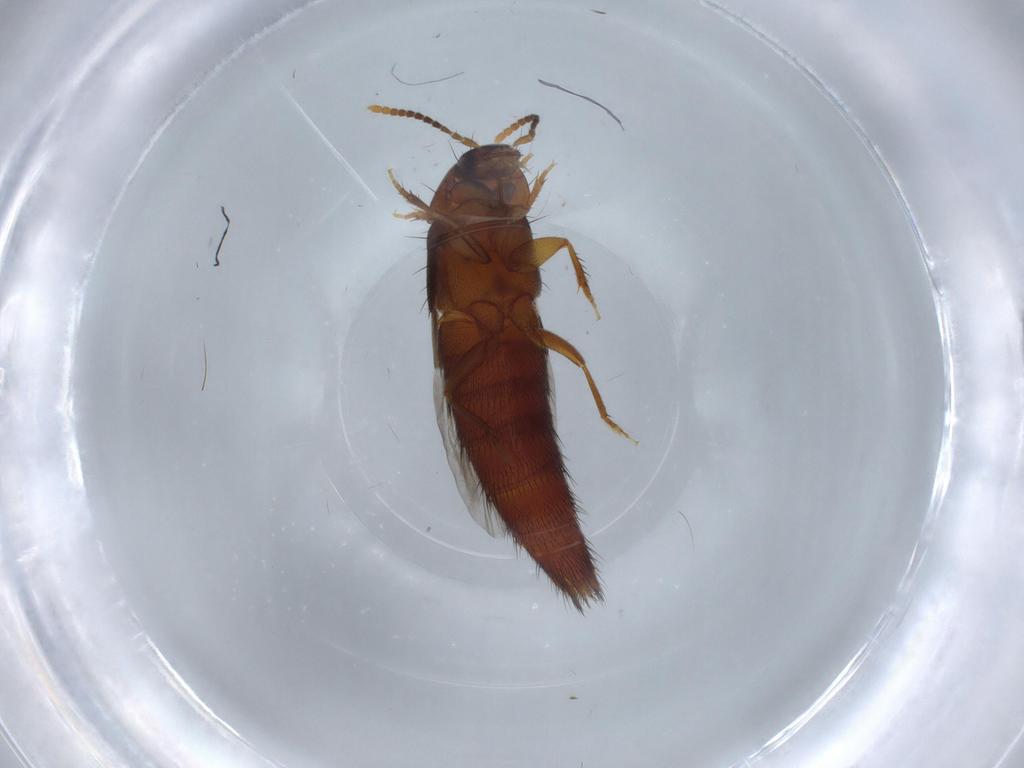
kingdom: Animalia
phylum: Arthropoda
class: Insecta
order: Coleoptera
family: Staphylinidae
